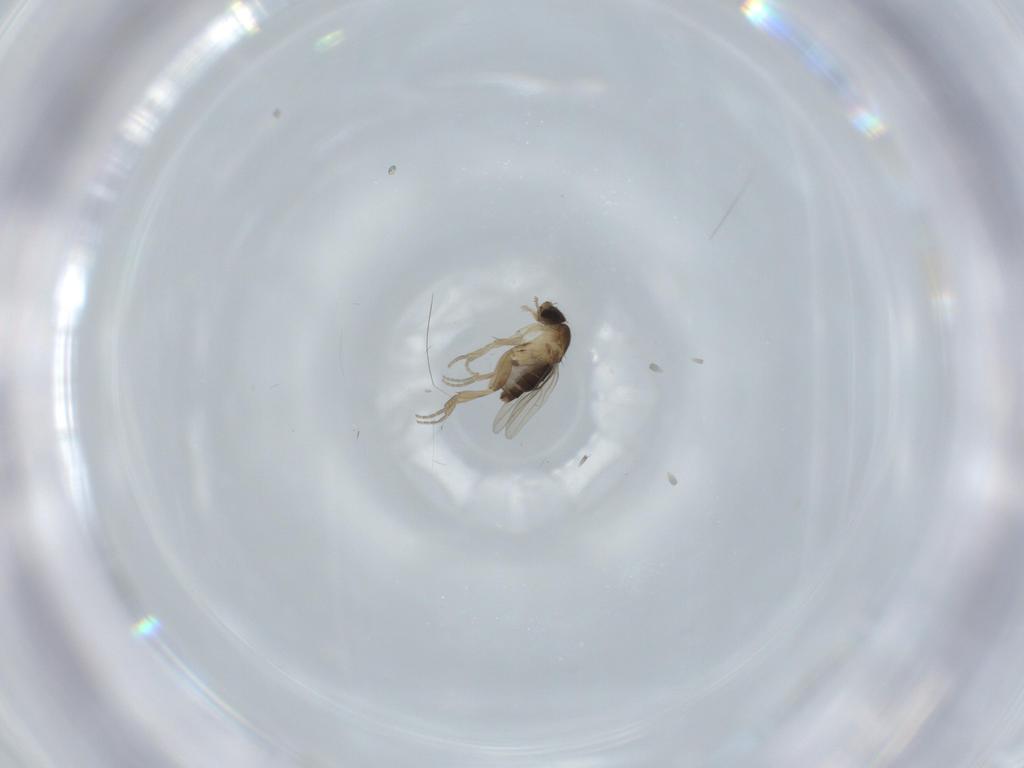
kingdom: Animalia
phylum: Arthropoda
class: Insecta
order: Diptera
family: Phoridae
